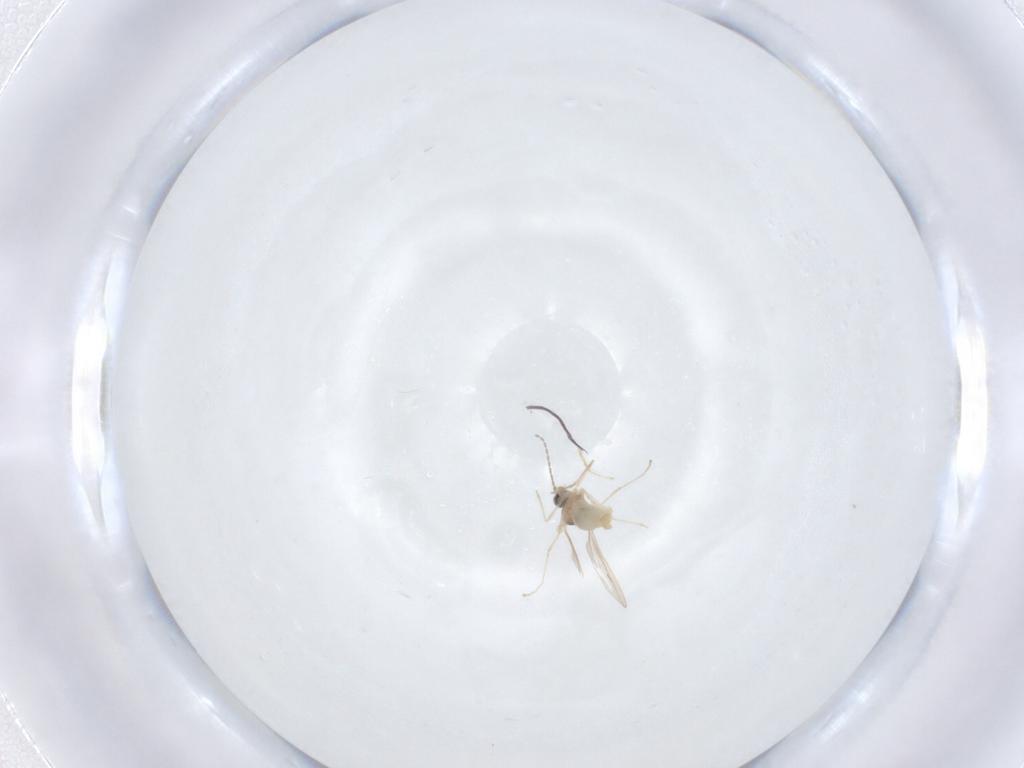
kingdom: Animalia
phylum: Arthropoda
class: Insecta
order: Diptera
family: Cecidomyiidae
